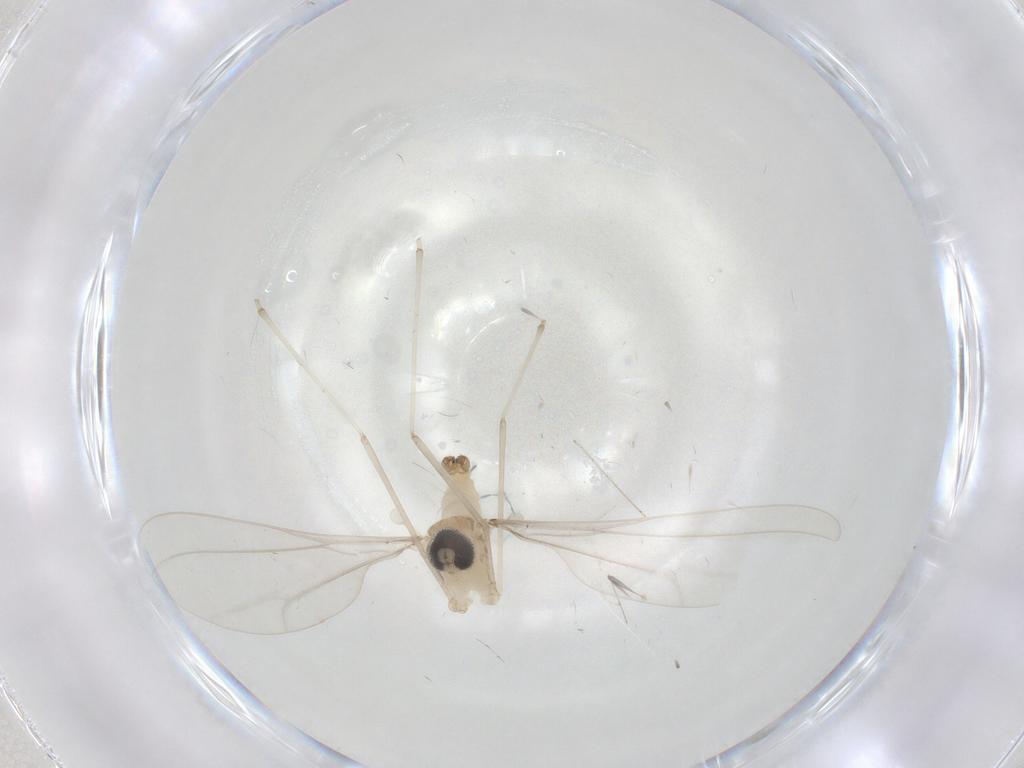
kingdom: Animalia
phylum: Arthropoda
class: Insecta
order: Diptera
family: Cecidomyiidae
